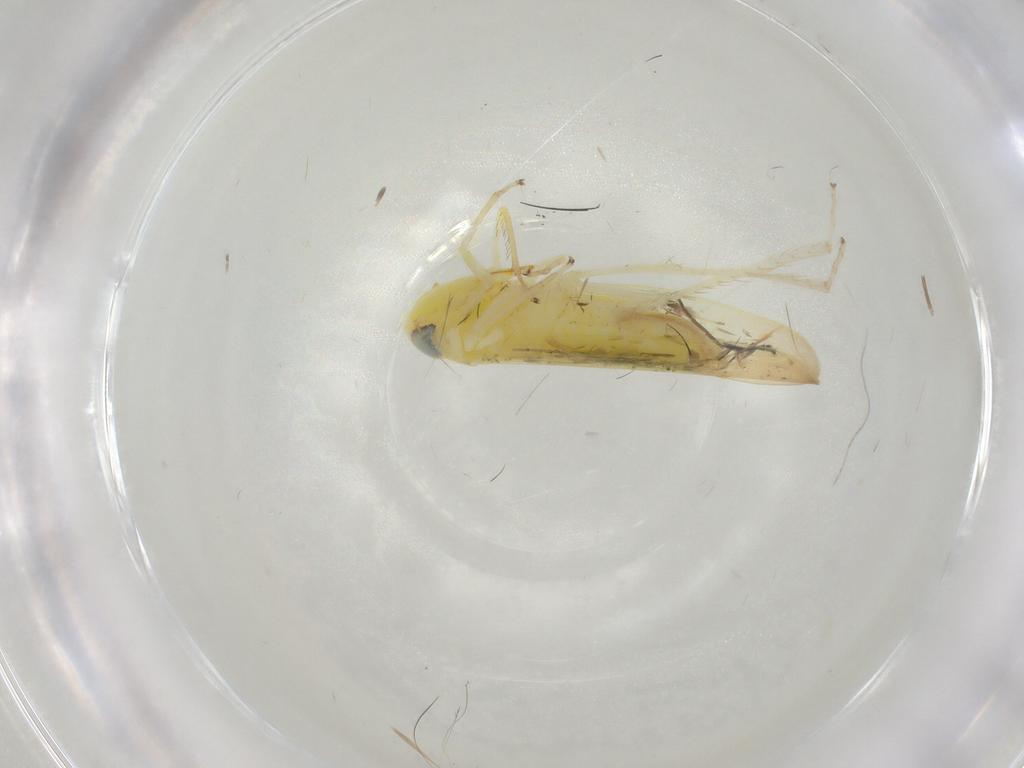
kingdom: Animalia
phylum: Arthropoda
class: Insecta
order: Hemiptera
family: Cicadellidae
